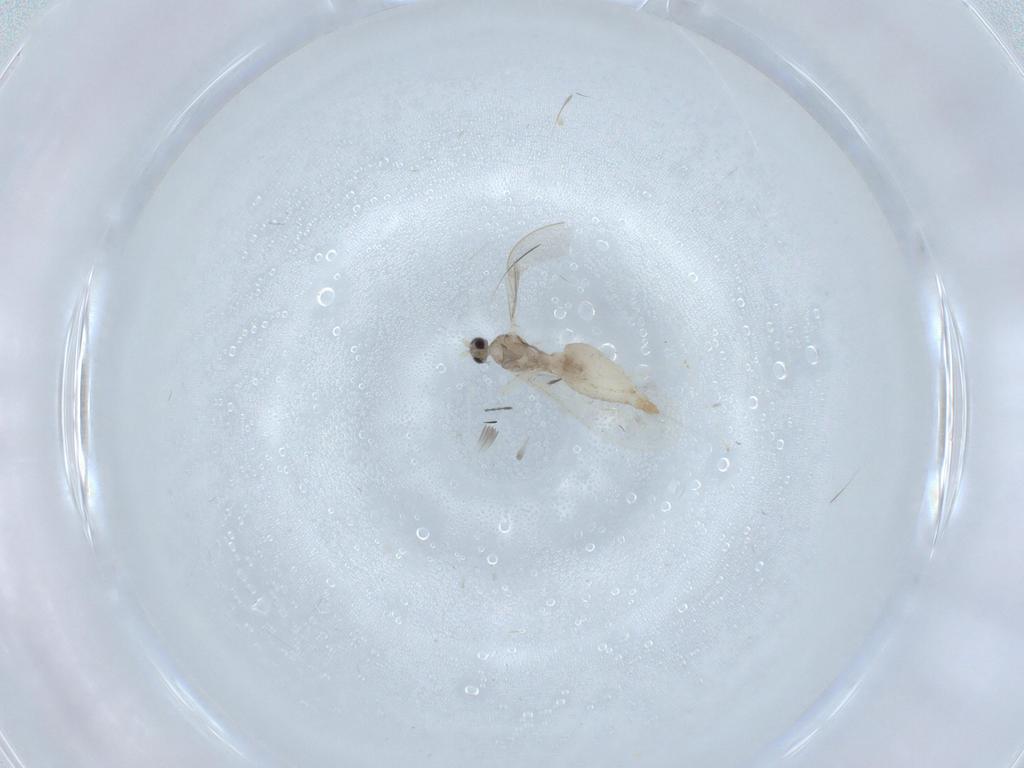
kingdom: Animalia
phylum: Arthropoda
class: Insecta
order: Diptera
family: Cecidomyiidae
